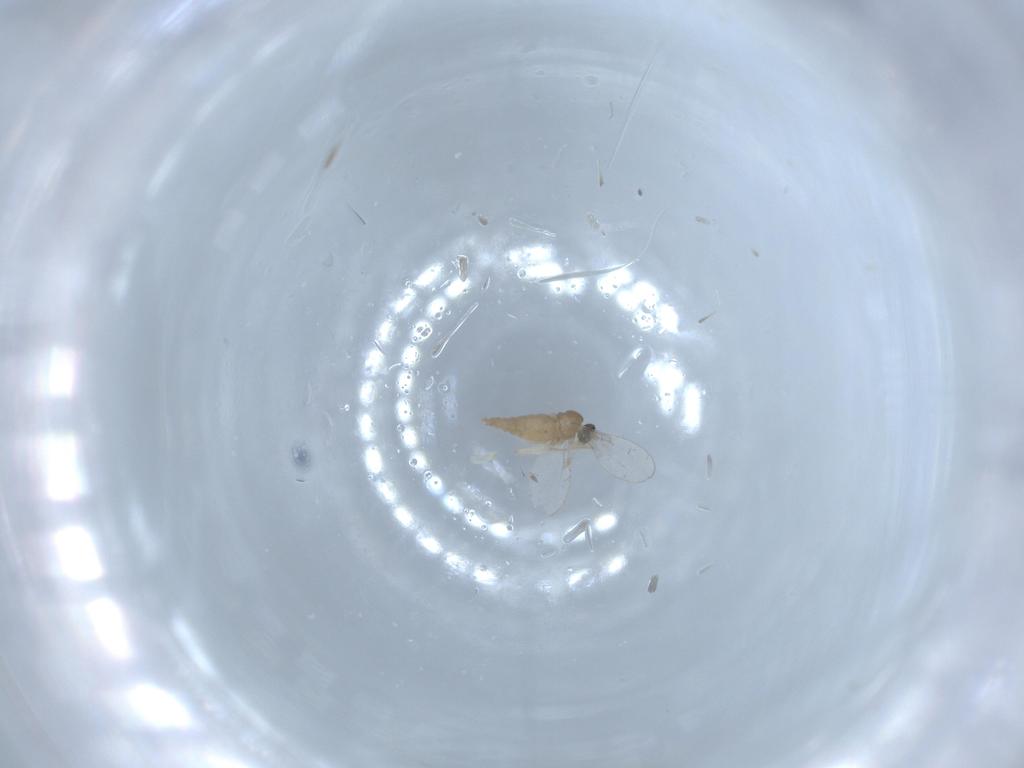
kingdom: Animalia
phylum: Arthropoda
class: Insecta
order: Diptera
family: Cecidomyiidae
